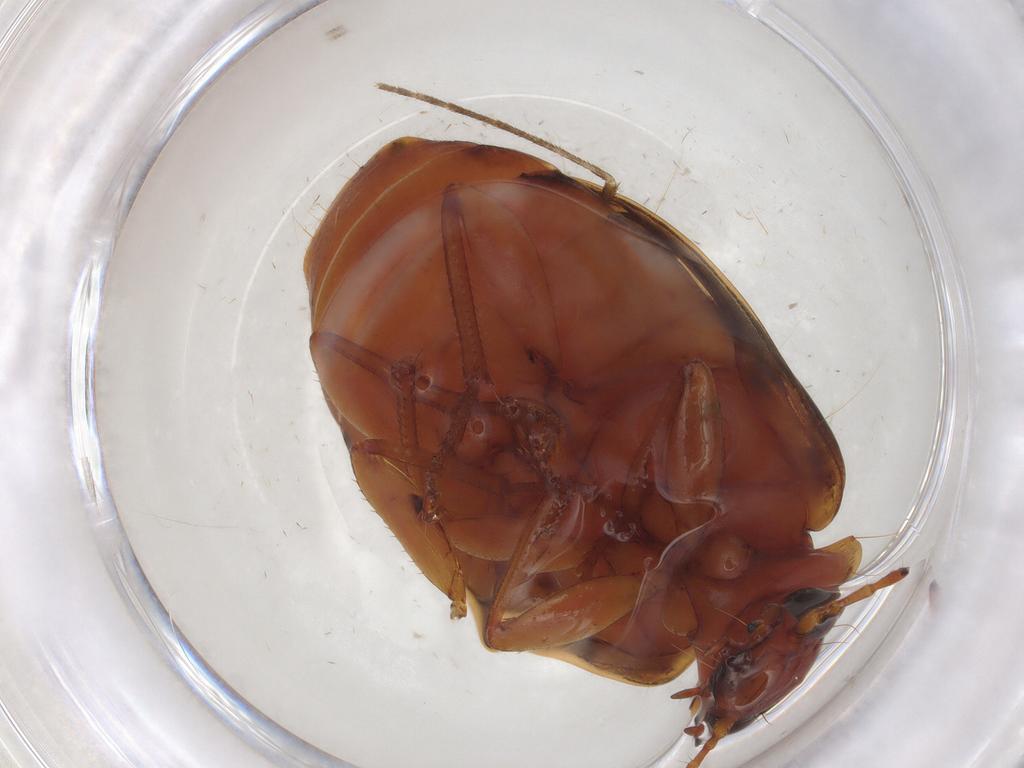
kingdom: Animalia
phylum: Arthropoda
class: Insecta
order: Coleoptera
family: Carabidae
